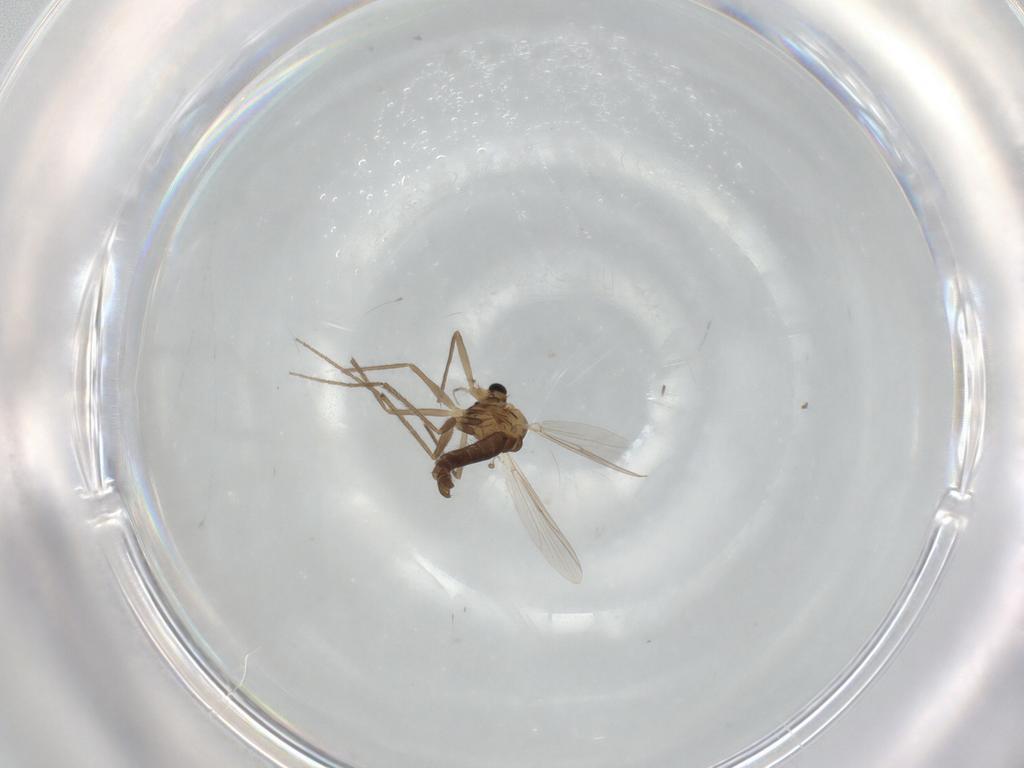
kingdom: Animalia
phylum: Arthropoda
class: Insecta
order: Diptera
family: Chironomidae
